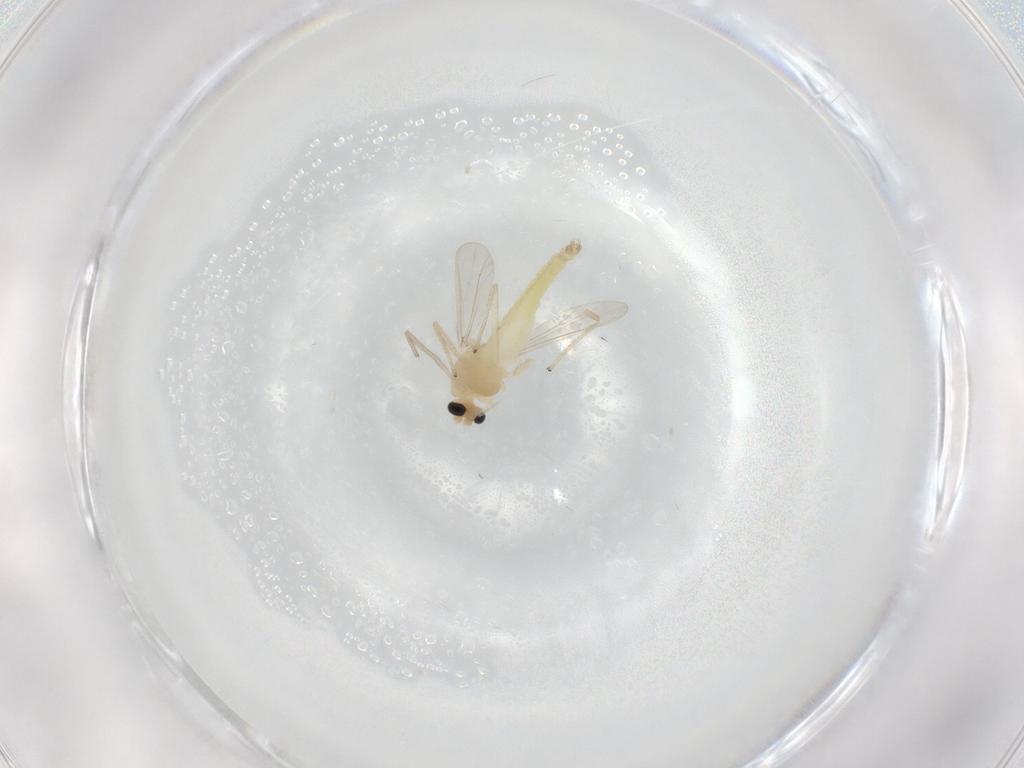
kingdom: Animalia
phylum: Arthropoda
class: Insecta
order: Diptera
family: Chironomidae
